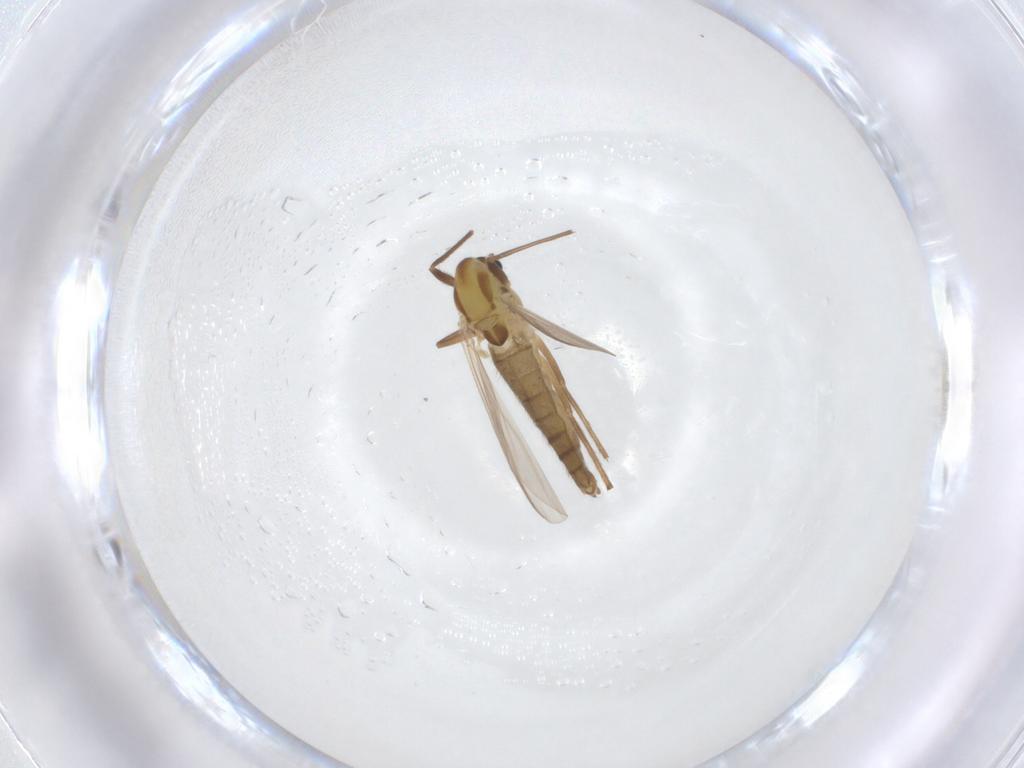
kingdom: Animalia
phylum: Arthropoda
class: Insecta
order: Diptera
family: Chironomidae
